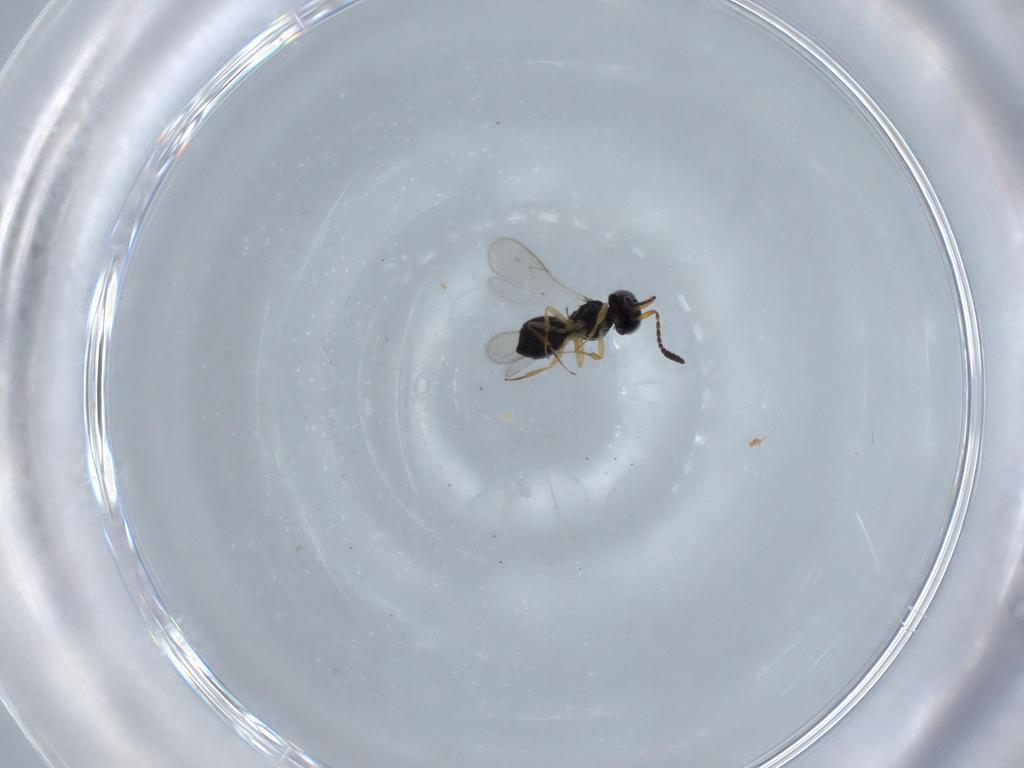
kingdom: Animalia
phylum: Arthropoda
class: Insecta
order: Hymenoptera
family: Scelionidae
